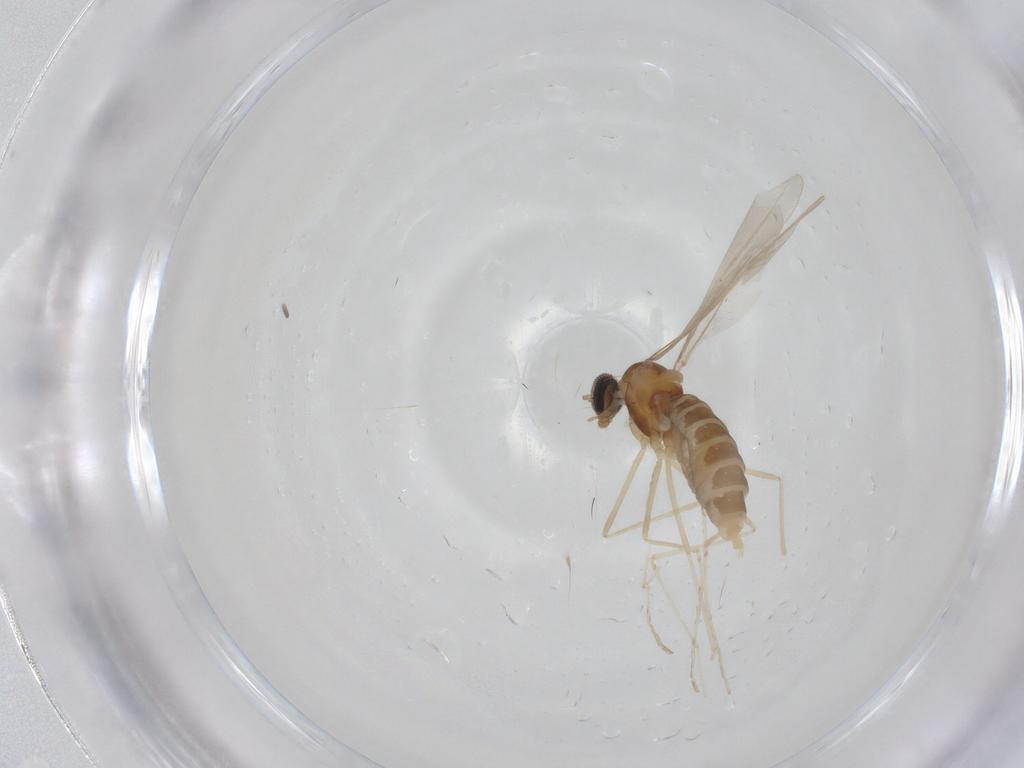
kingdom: Animalia
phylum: Arthropoda
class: Insecta
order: Diptera
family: Cecidomyiidae
